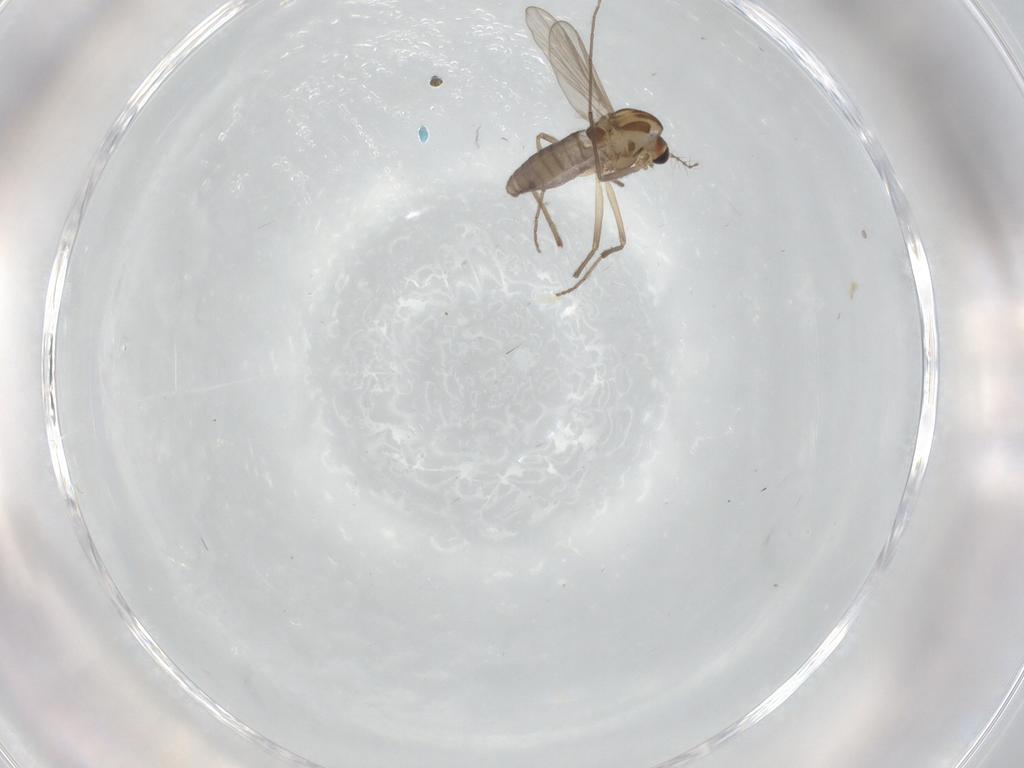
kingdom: Animalia
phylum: Arthropoda
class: Insecta
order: Diptera
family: Chironomidae
